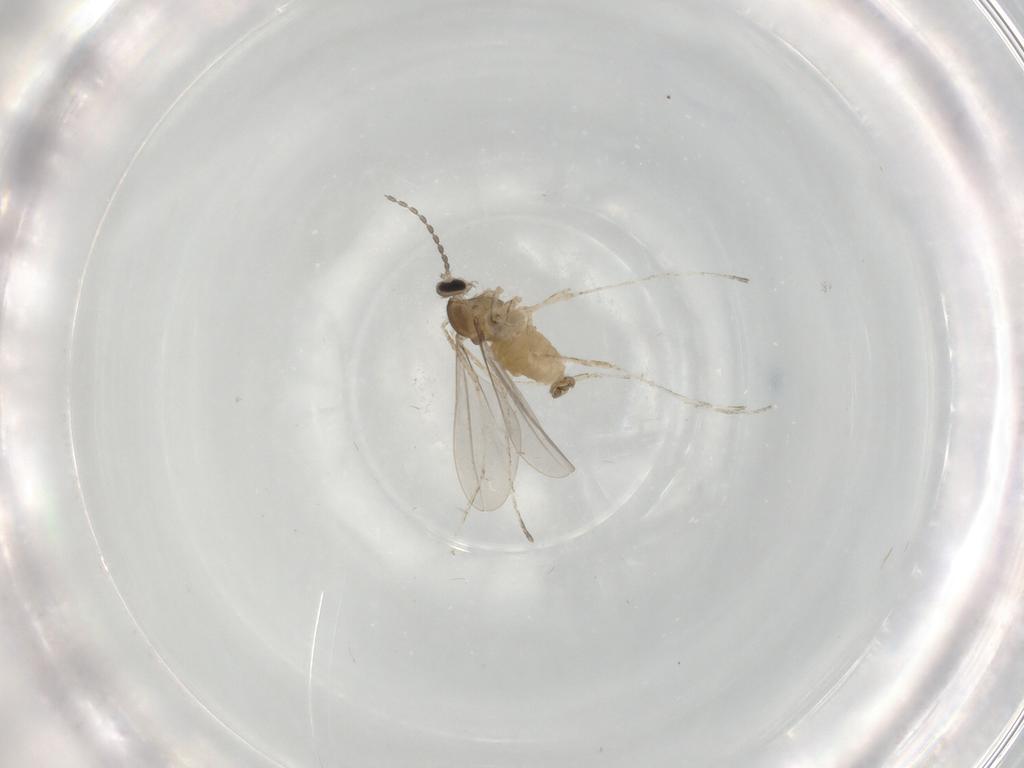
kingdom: Animalia
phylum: Arthropoda
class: Insecta
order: Diptera
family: Cecidomyiidae
